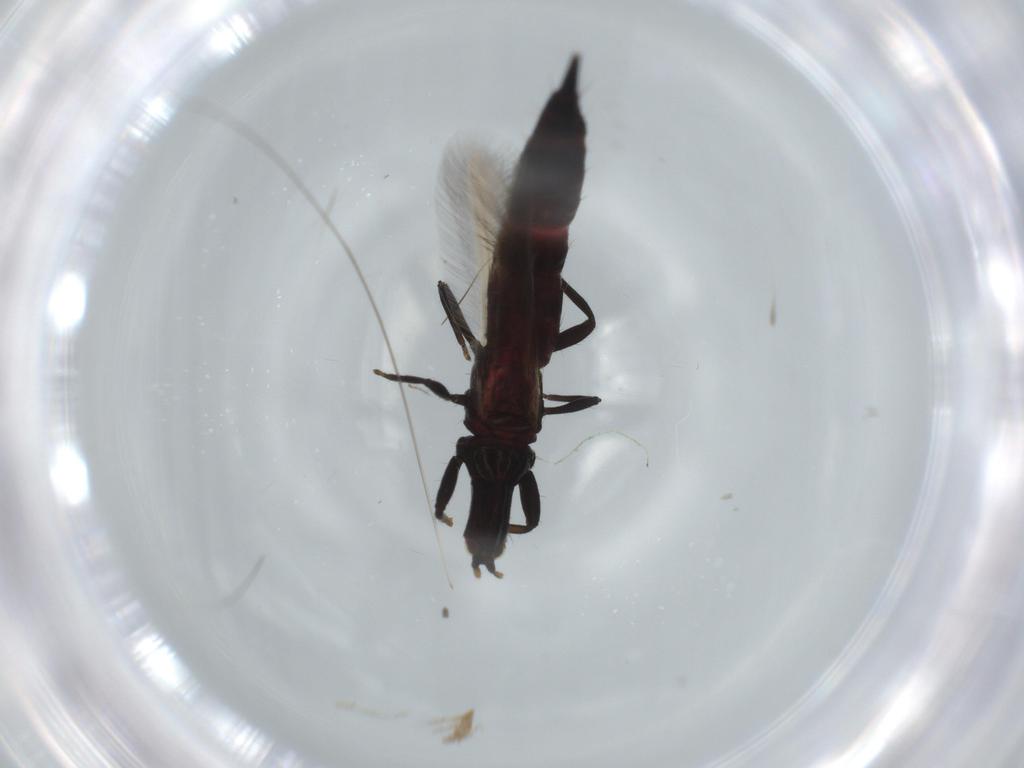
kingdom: Animalia
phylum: Arthropoda
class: Insecta
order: Thysanoptera
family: Phlaeothripidae
